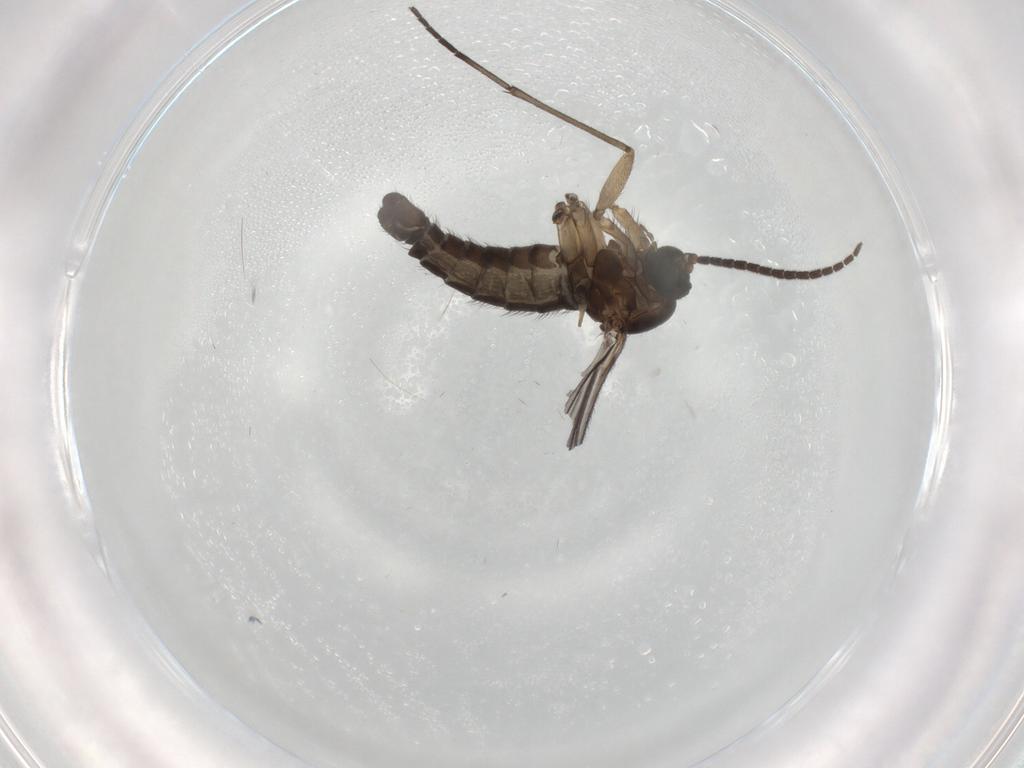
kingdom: Animalia
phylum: Arthropoda
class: Insecta
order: Diptera
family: Sciaridae
